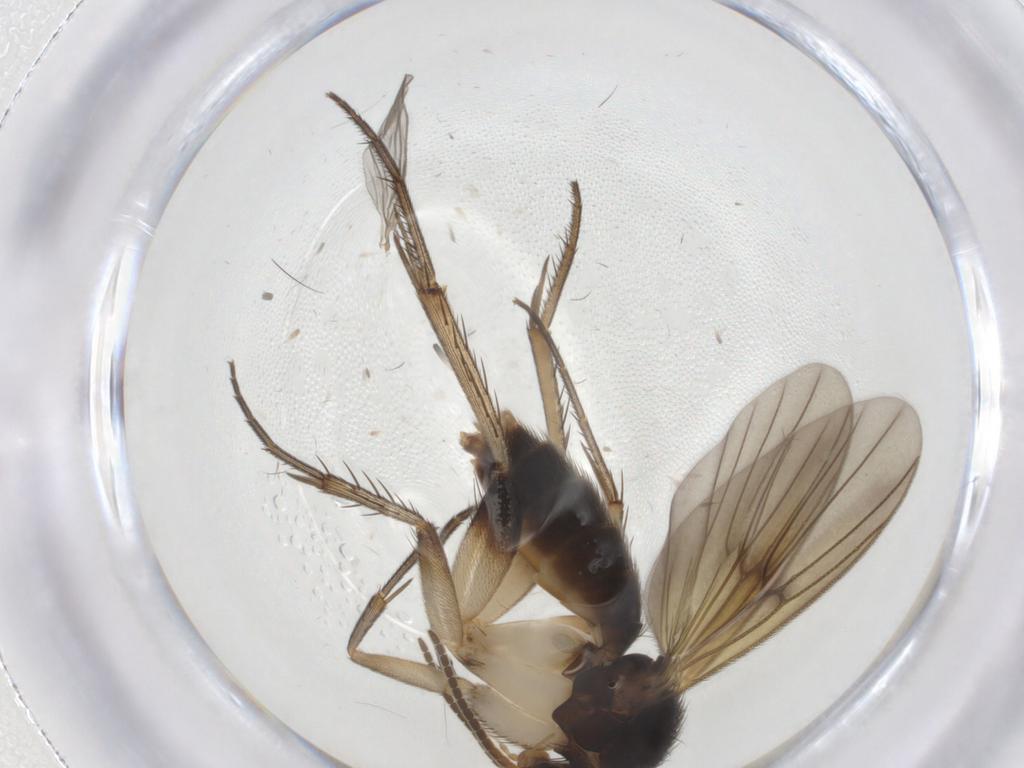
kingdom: Animalia
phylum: Arthropoda
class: Insecta
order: Diptera
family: Mycetophilidae
